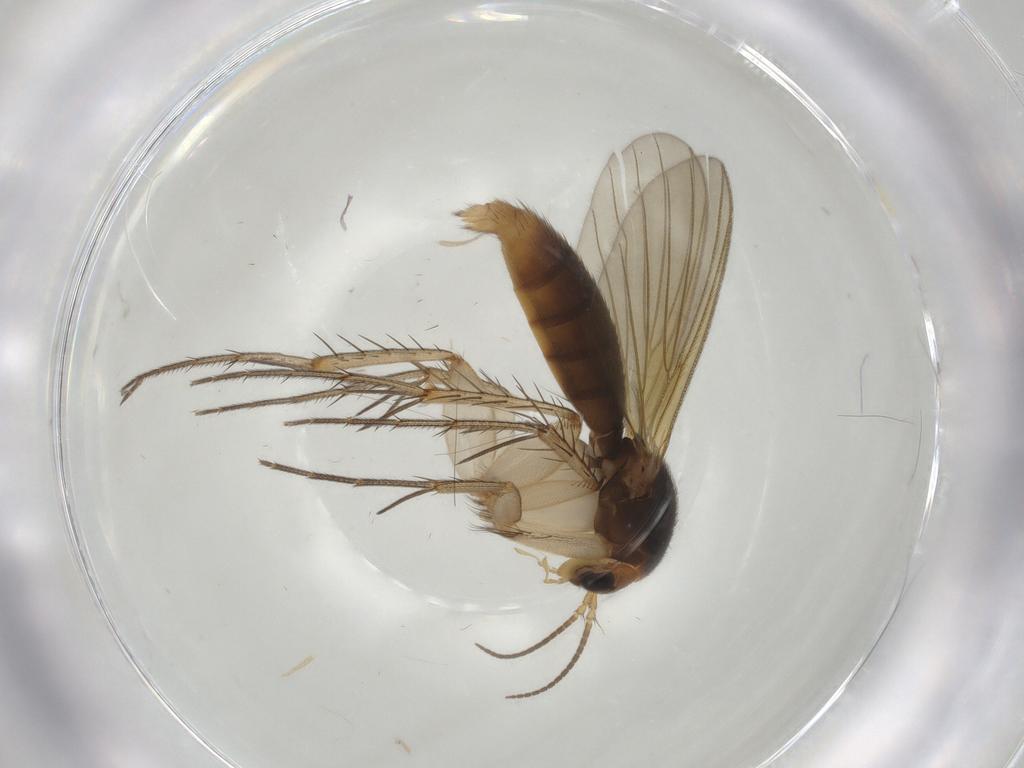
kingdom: Animalia
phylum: Arthropoda
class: Insecta
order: Diptera
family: Mycetophilidae
